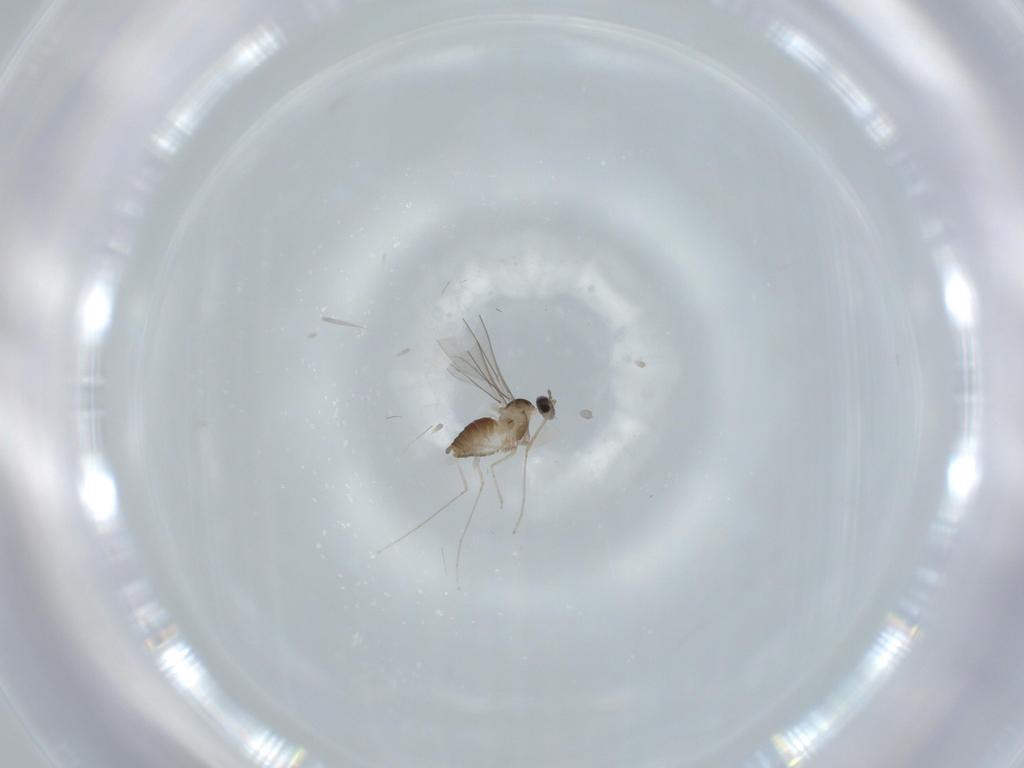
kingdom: Animalia
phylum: Arthropoda
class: Insecta
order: Diptera
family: Cecidomyiidae
